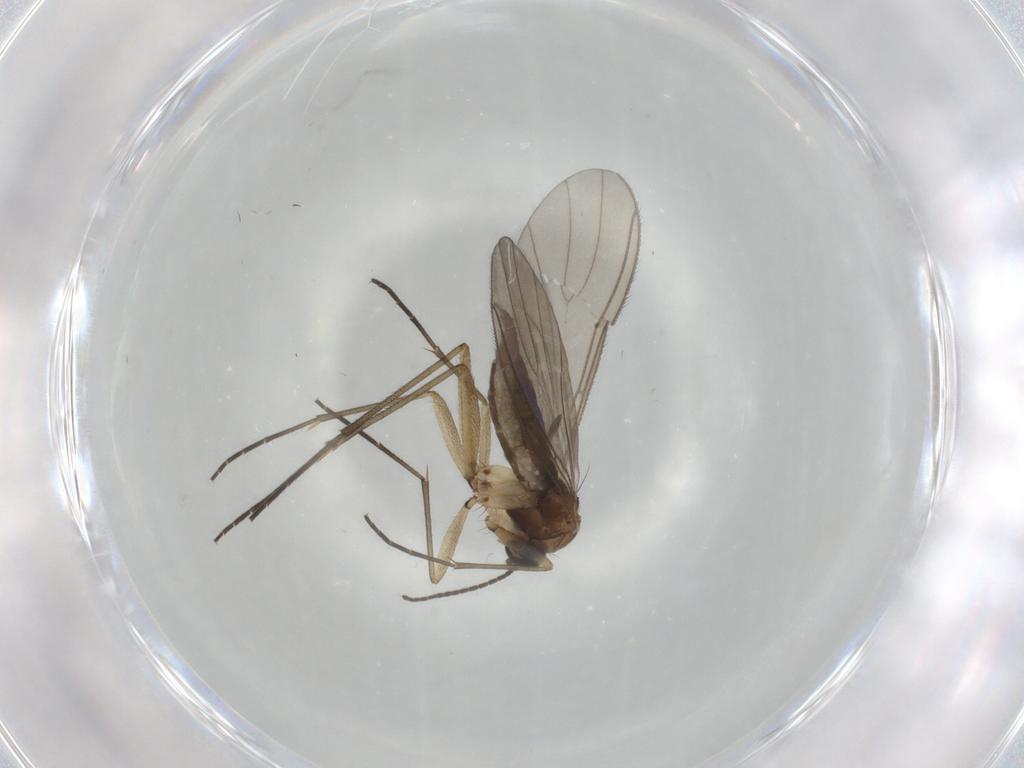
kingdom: Animalia
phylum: Arthropoda
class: Insecta
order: Diptera
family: Sciaridae
